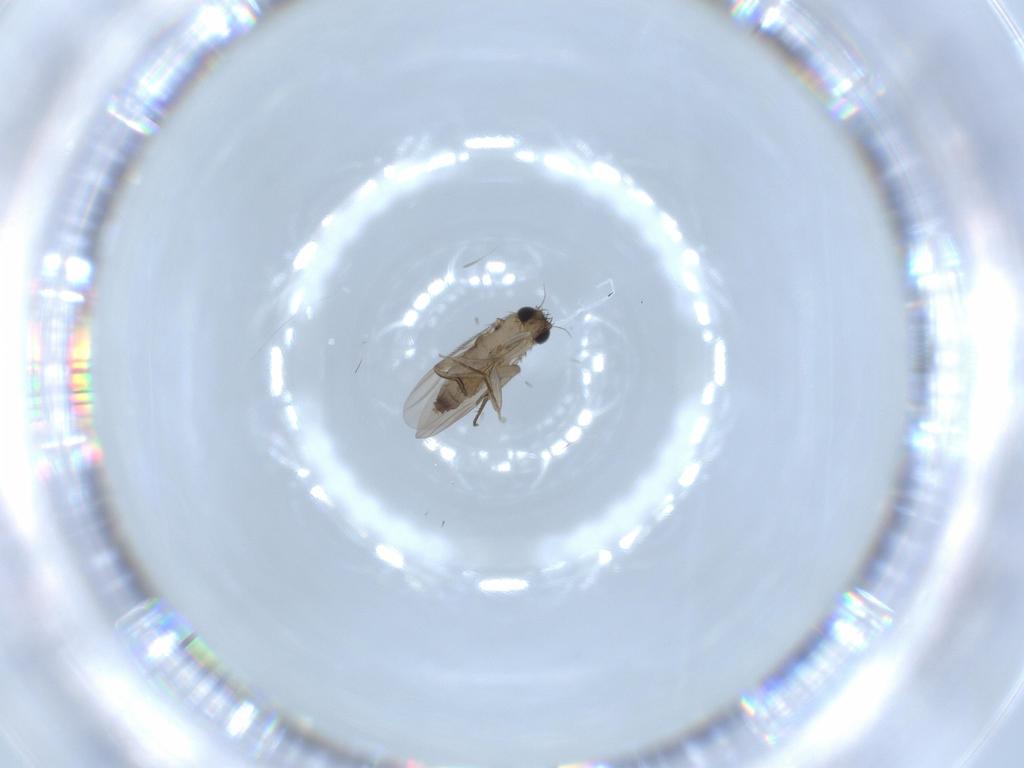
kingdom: Animalia
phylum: Arthropoda
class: Insecta
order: Diptera
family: Phoridae
